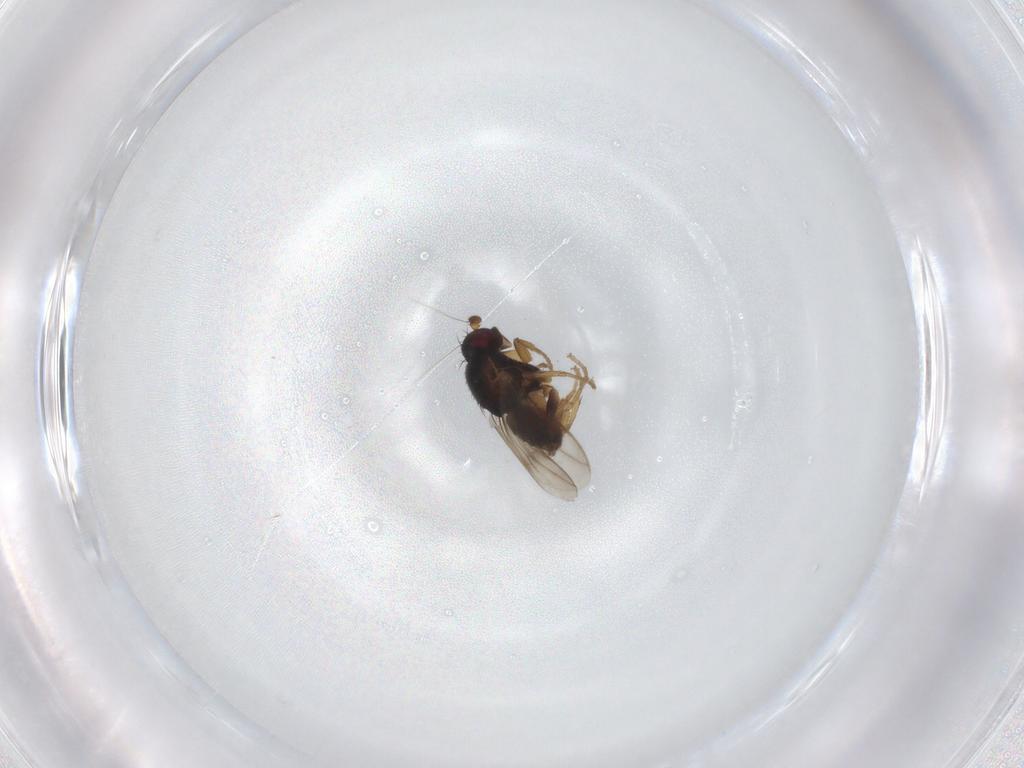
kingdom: Animalia
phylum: Arthropoda
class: Insecta
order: Diptera
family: Sphaeroceridae
